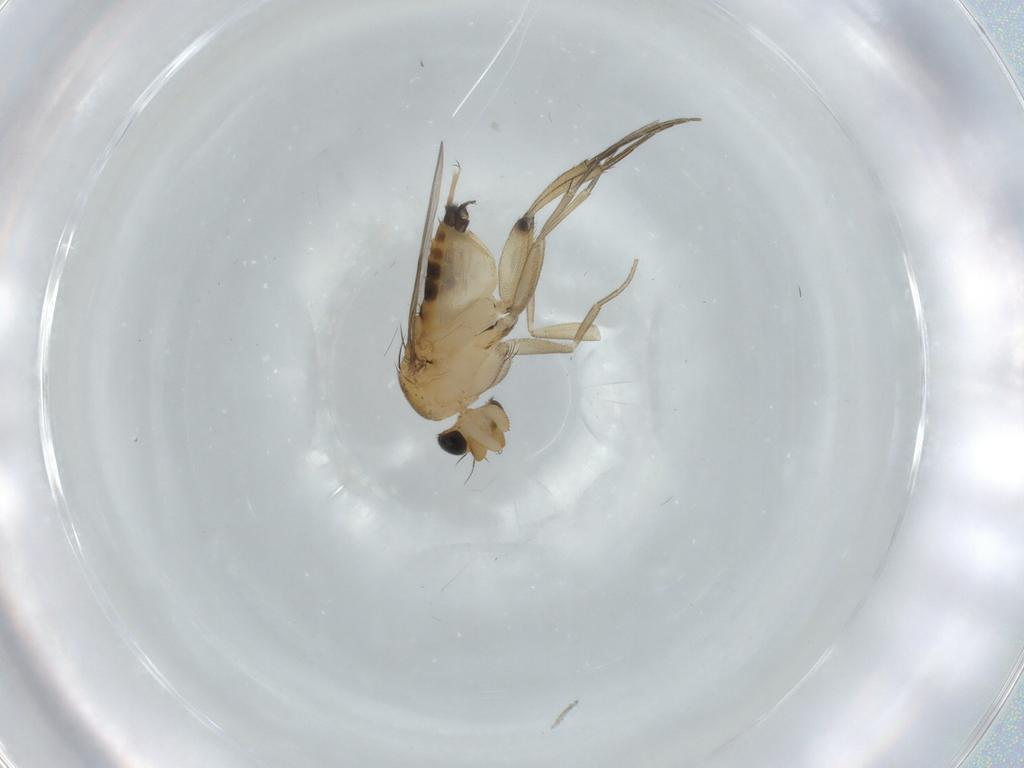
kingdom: Animalia
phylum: Arthropoda
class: Insecta
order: Diptera
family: Phoridae
